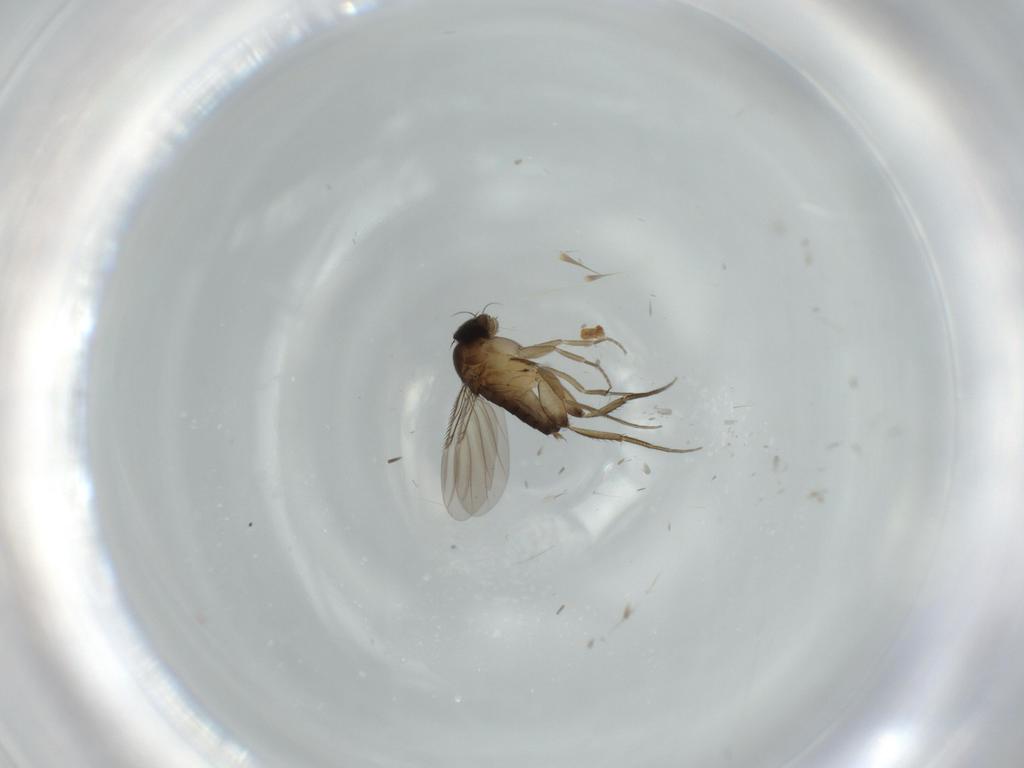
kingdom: Animalia
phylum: Arthropoda
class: Insecta
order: Diptera
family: Phoridae
